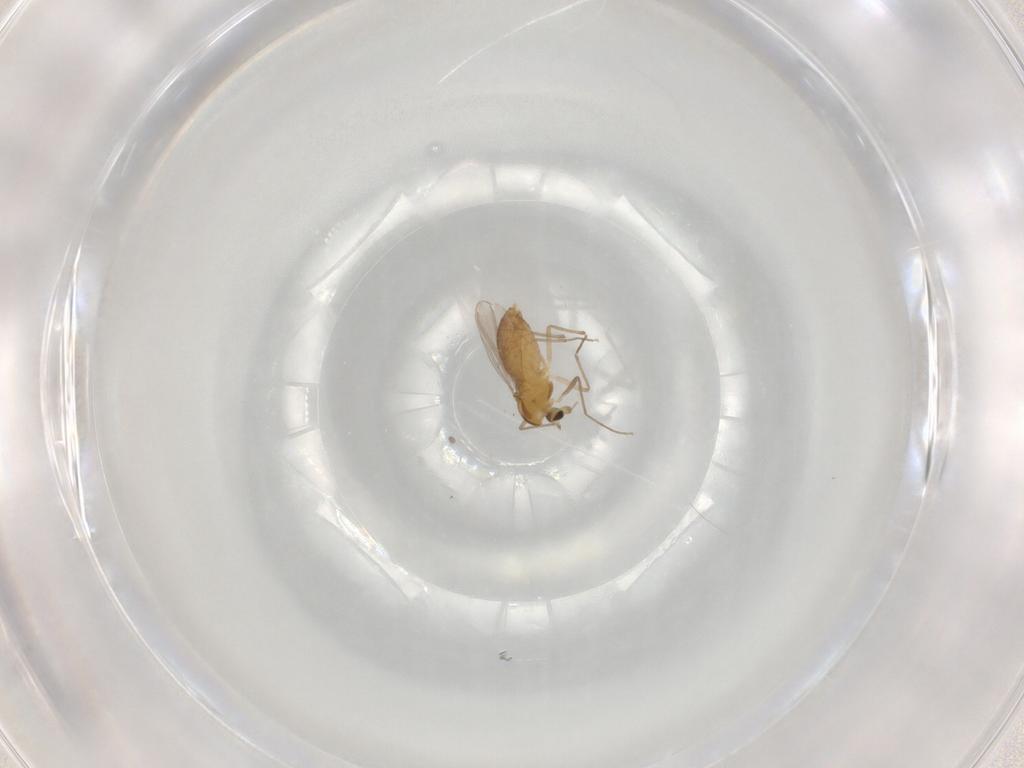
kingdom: Animalia
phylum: Arthropoda
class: Insecta
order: Diptera
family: Chironomidae
